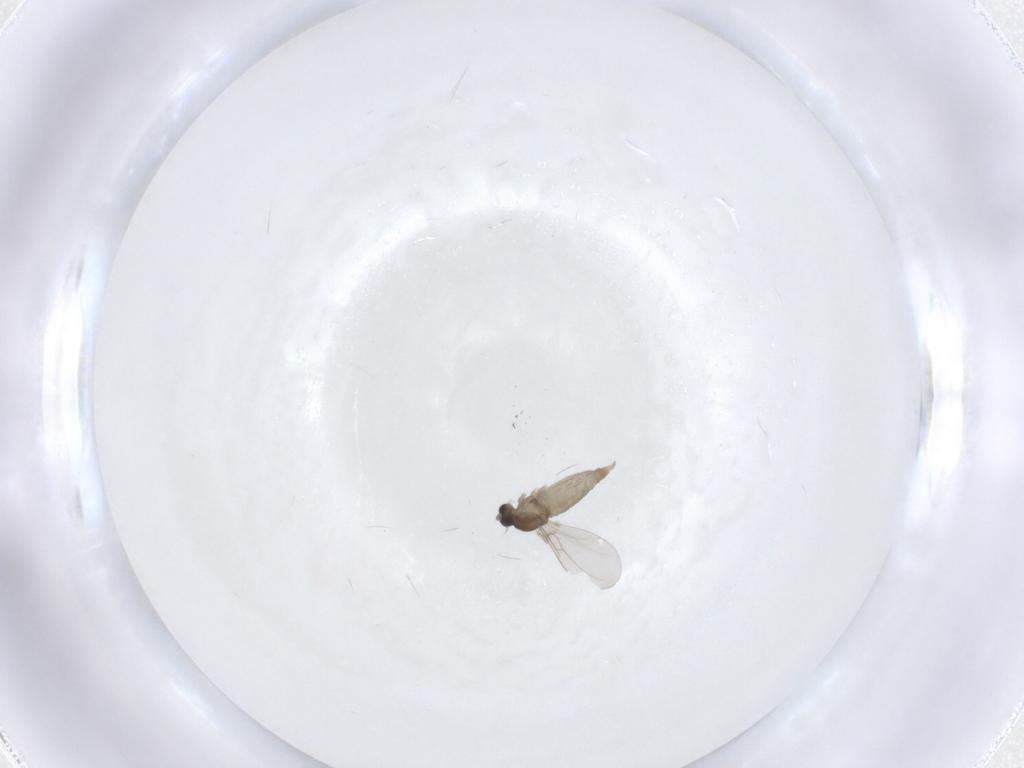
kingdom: Animalia
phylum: Arthropoda
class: Insecta
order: Diptera
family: Cecidomyiidae
